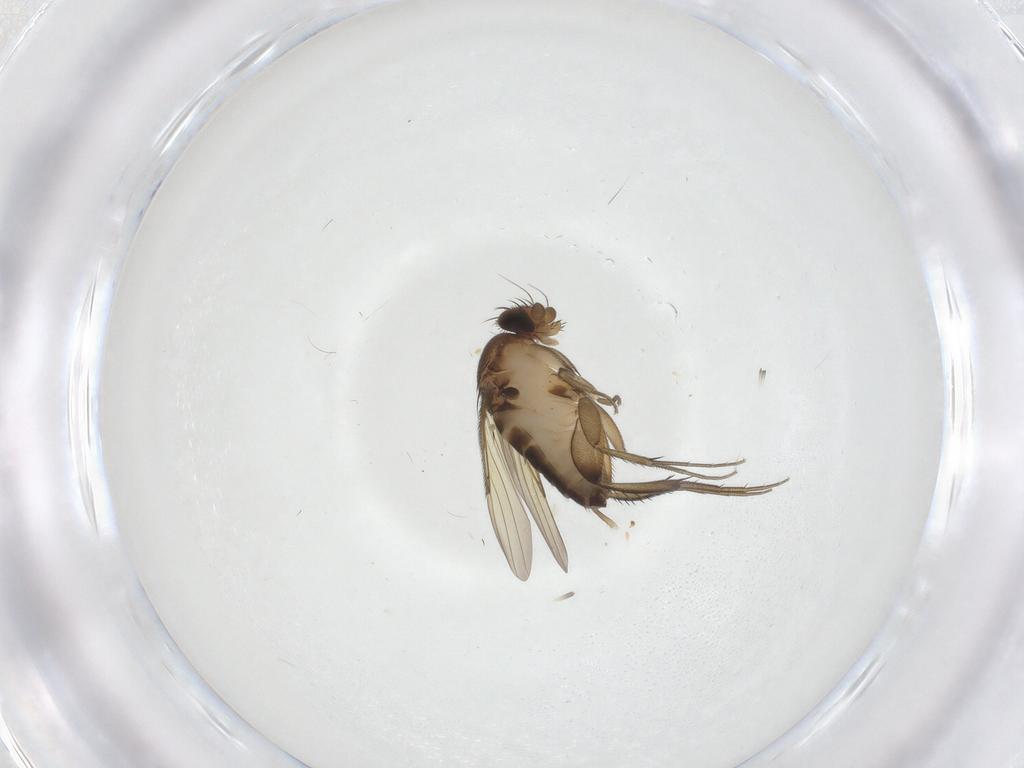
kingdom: Animalia
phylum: Arthropoda
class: Insecta
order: Diptera
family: Phoridae
